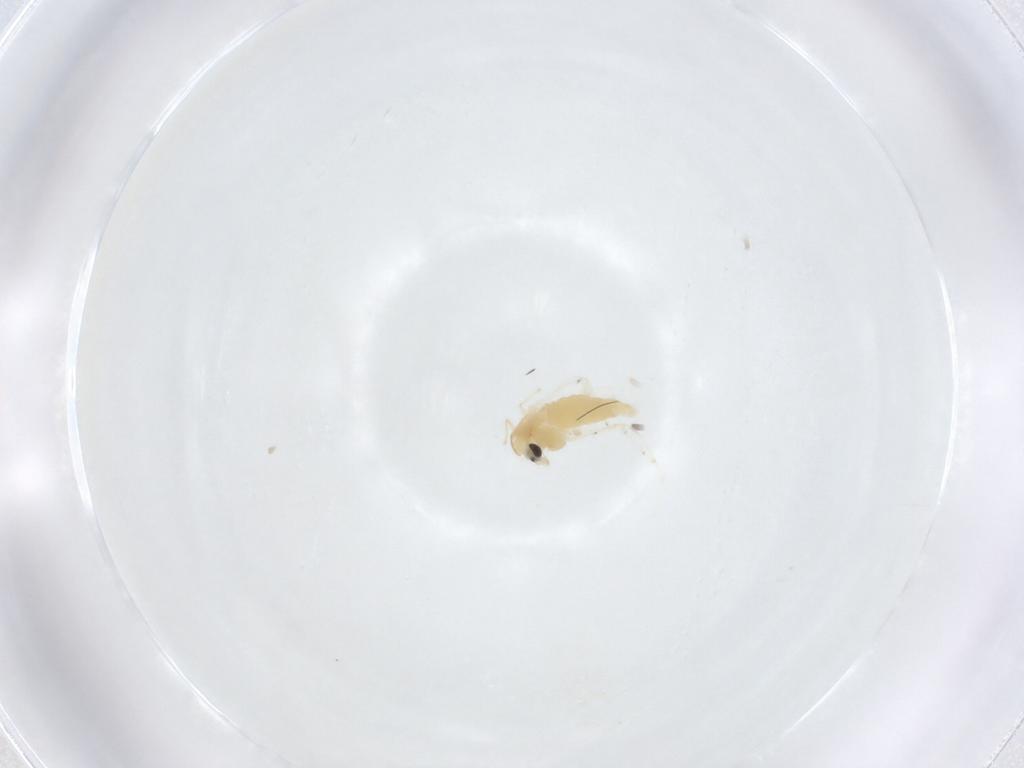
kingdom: Animalia
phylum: Arthropoda
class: Insecta
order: Diptera
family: Chironomidae
